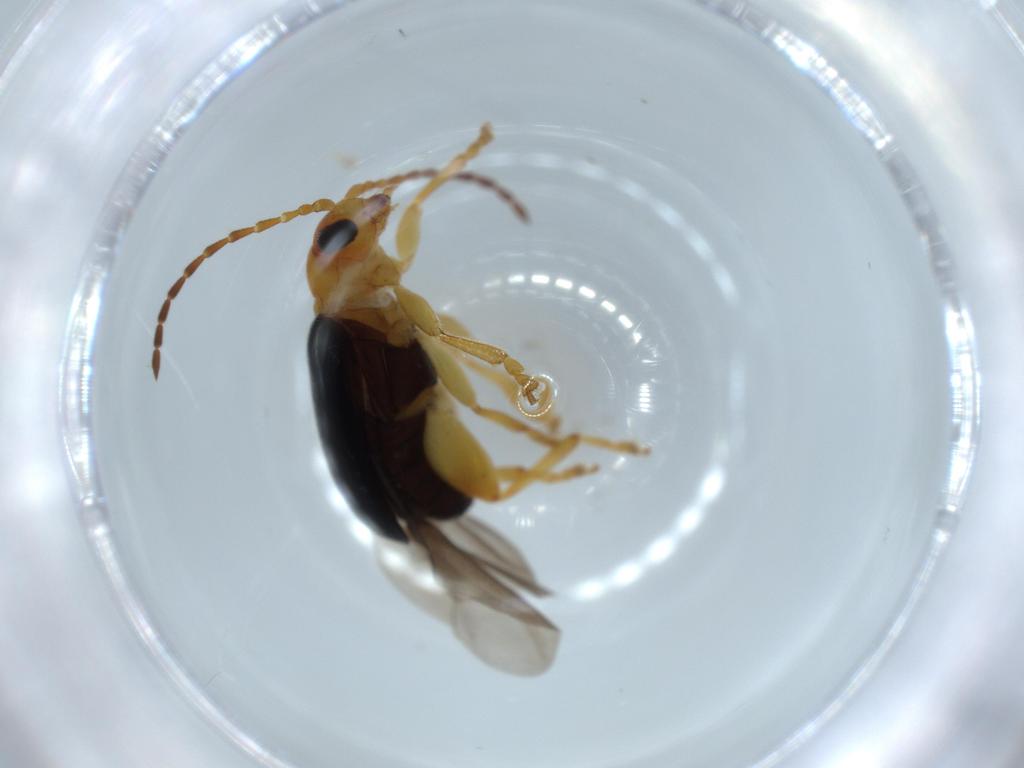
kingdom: Animalia
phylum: Arthropoda
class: Insecta
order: Coleoptera
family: Chrysomelidae
